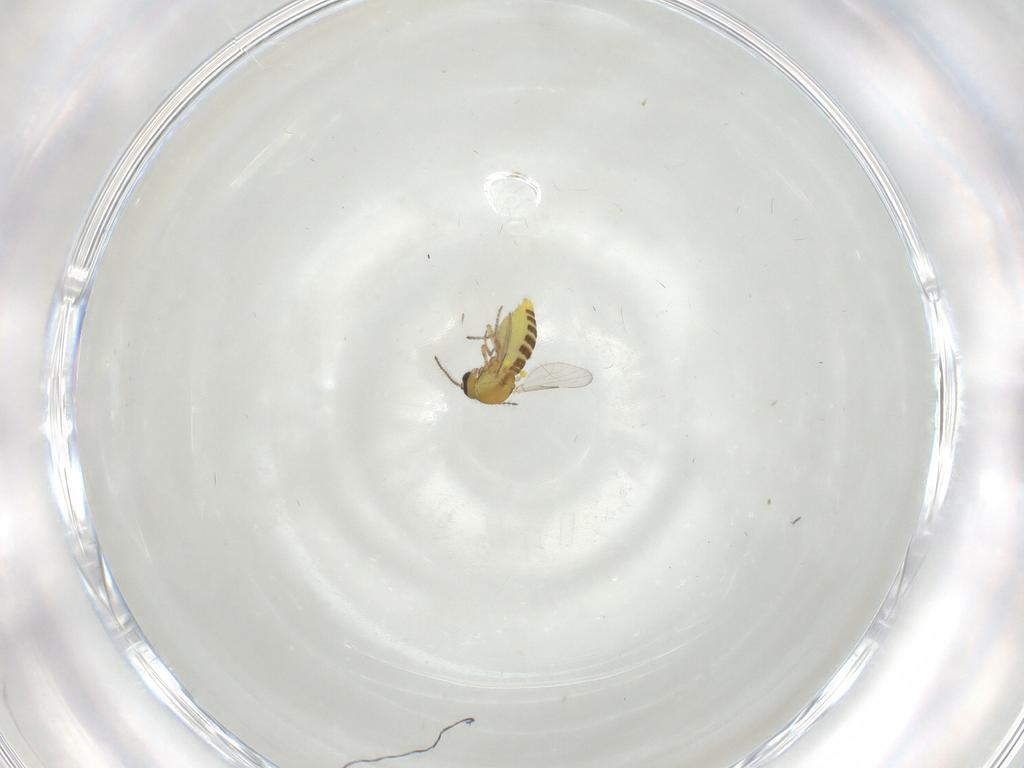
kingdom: Animalia
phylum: Arthropoda
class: Insecta
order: Diptera
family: Ceratopogonidae
